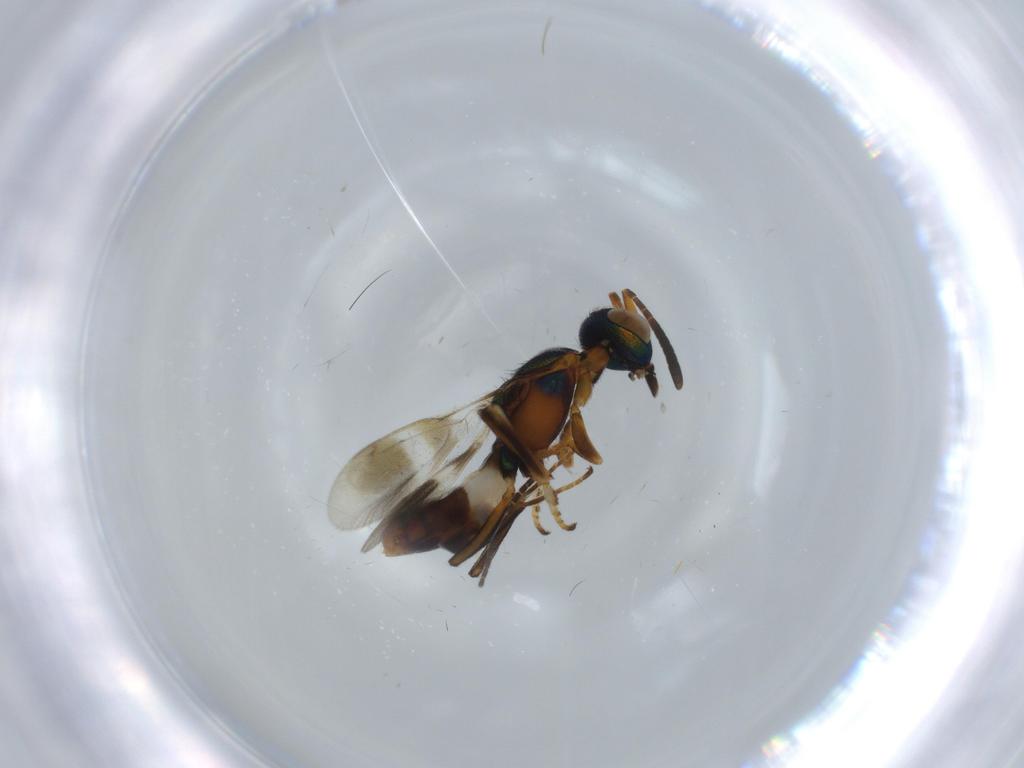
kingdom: Animalia
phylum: Arthropoda
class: Insecta
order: Hymenoptera
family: Eupelmidae
